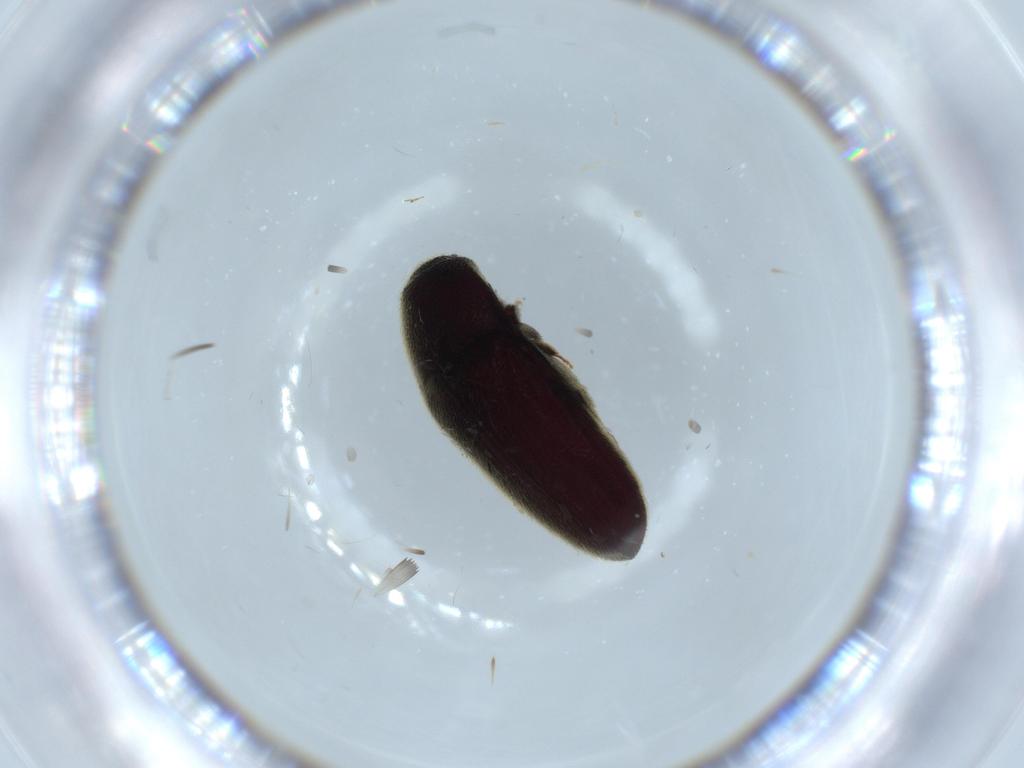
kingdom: Animalia
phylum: Arthropoda
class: Insecta
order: Coleoptera
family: Throscidae
